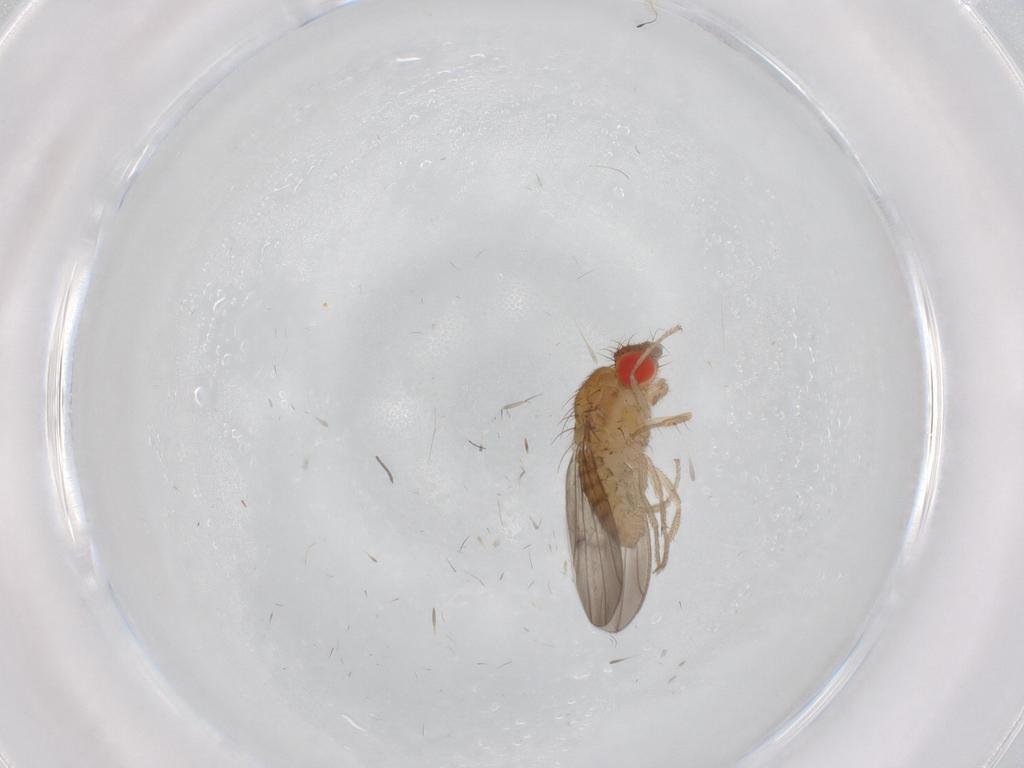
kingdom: Animalia
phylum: Arthropoda
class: Insecta
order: Diptera
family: Drosophilidae
